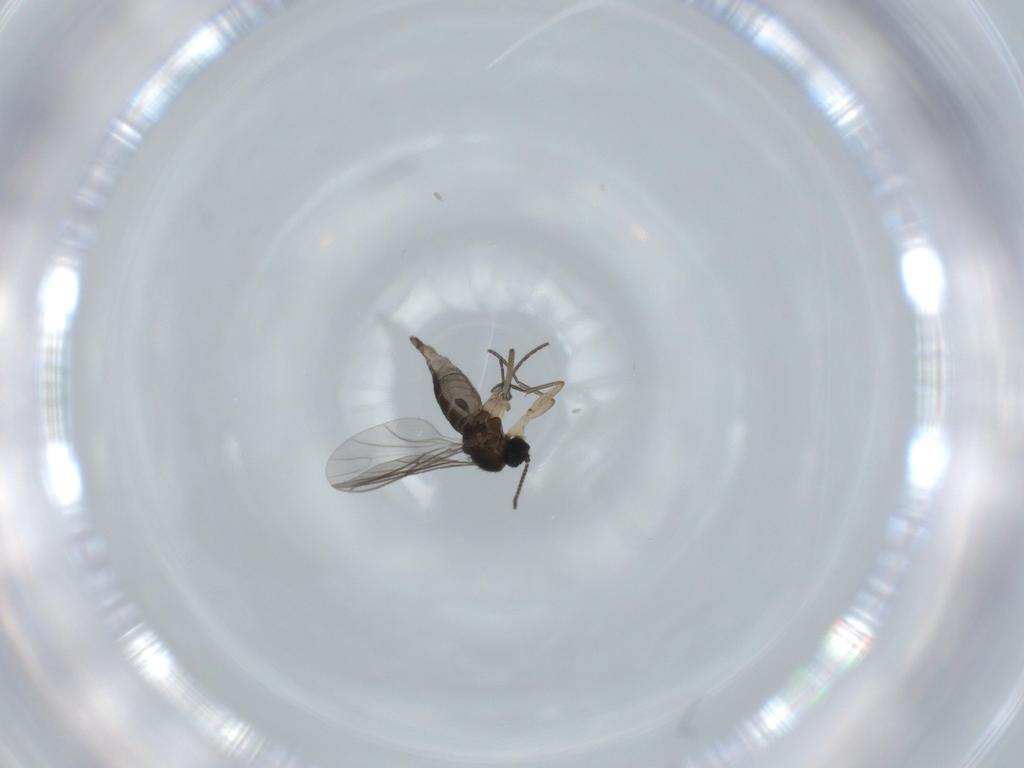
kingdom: Animalia
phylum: Arthropoda
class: Insecta
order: Diptera
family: Sciaridae
